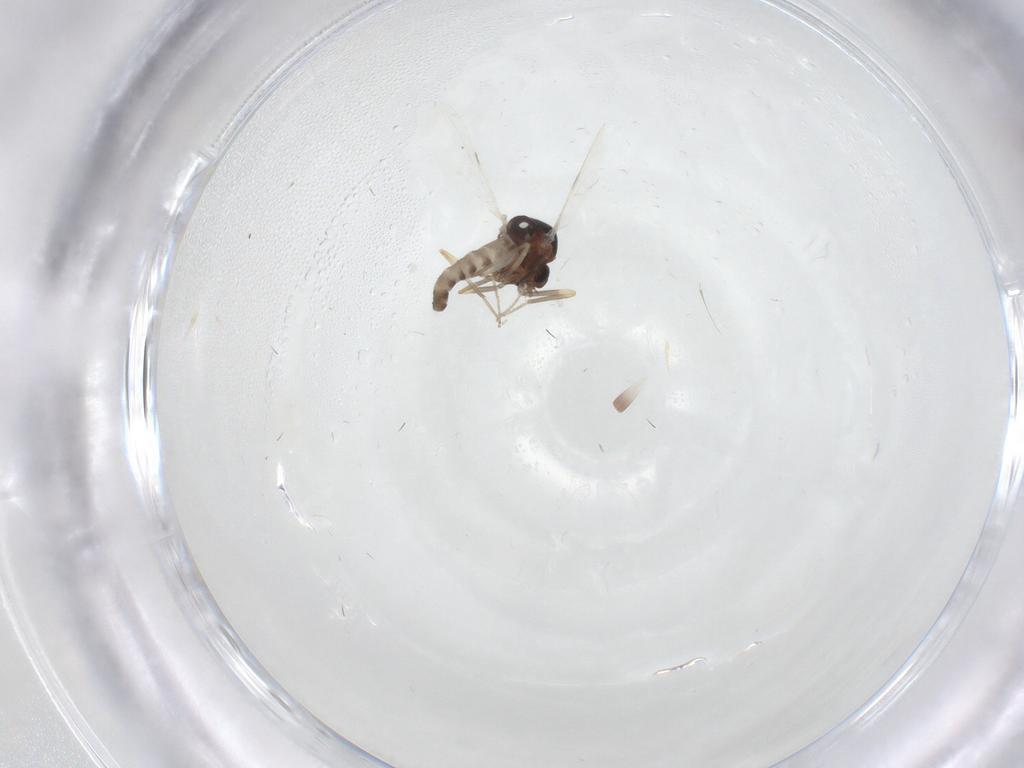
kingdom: Animalia
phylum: Arthropoda
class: Insecta
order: Diptera
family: Ceratopogonidae
